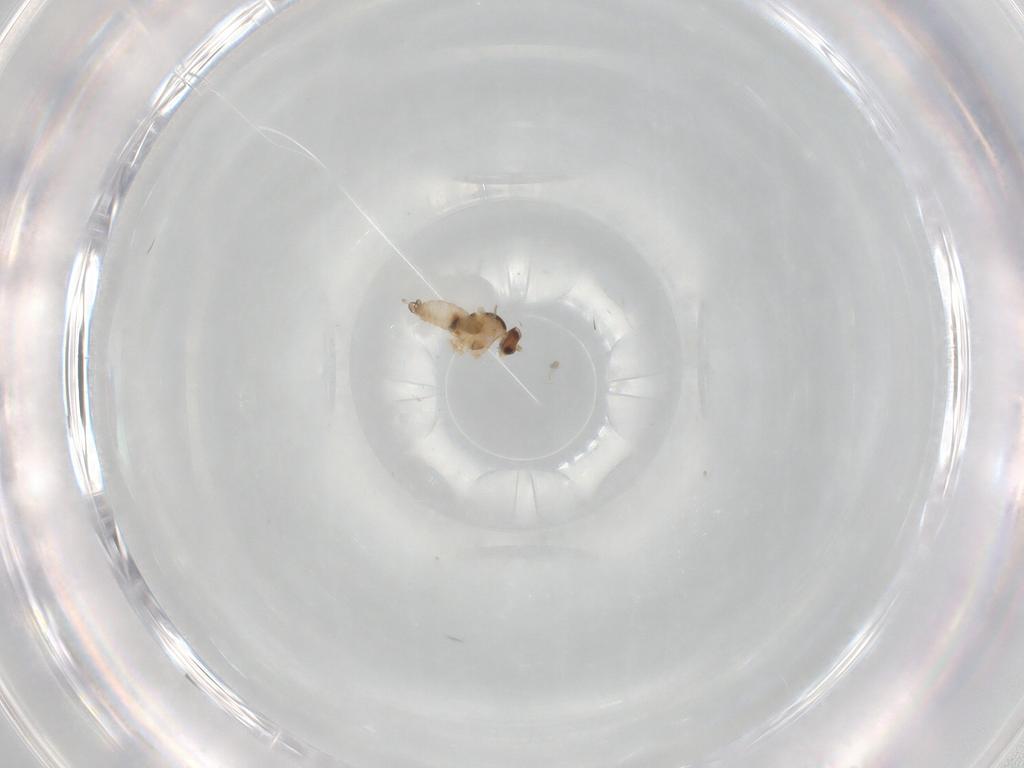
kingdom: Animalia
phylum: Arthropoda
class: Insecta
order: Diptera
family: Cecidomyiidae
